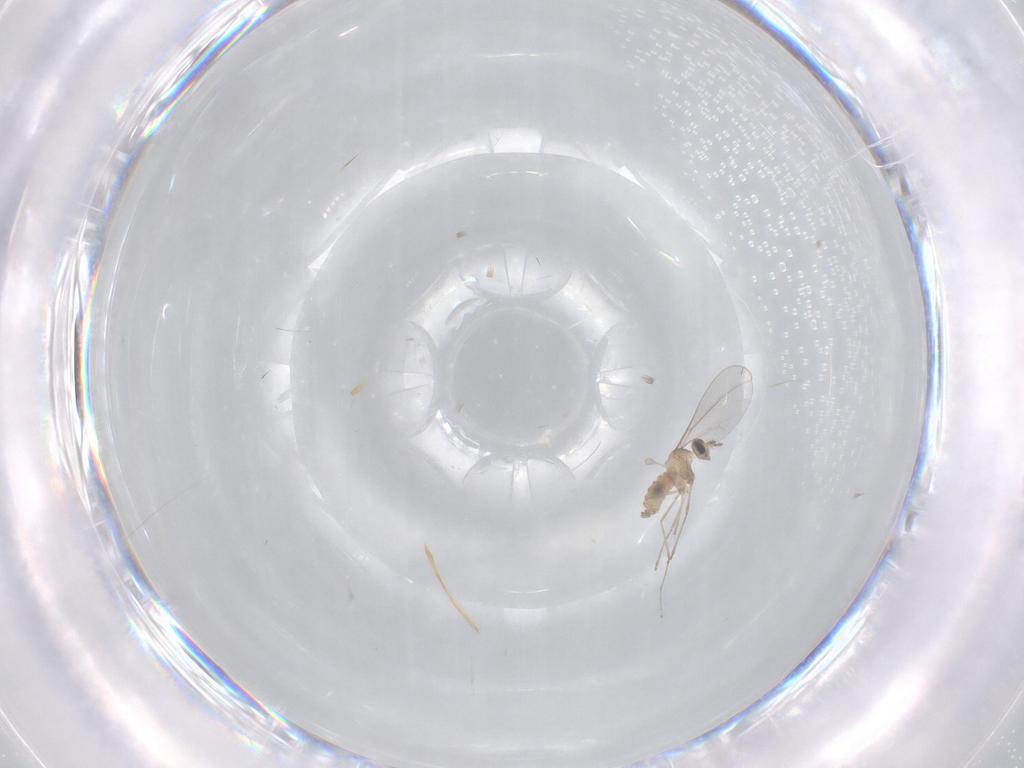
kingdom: Animalia
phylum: Arthropoda
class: Insecta
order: Diptera
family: Cecidomyiidae
